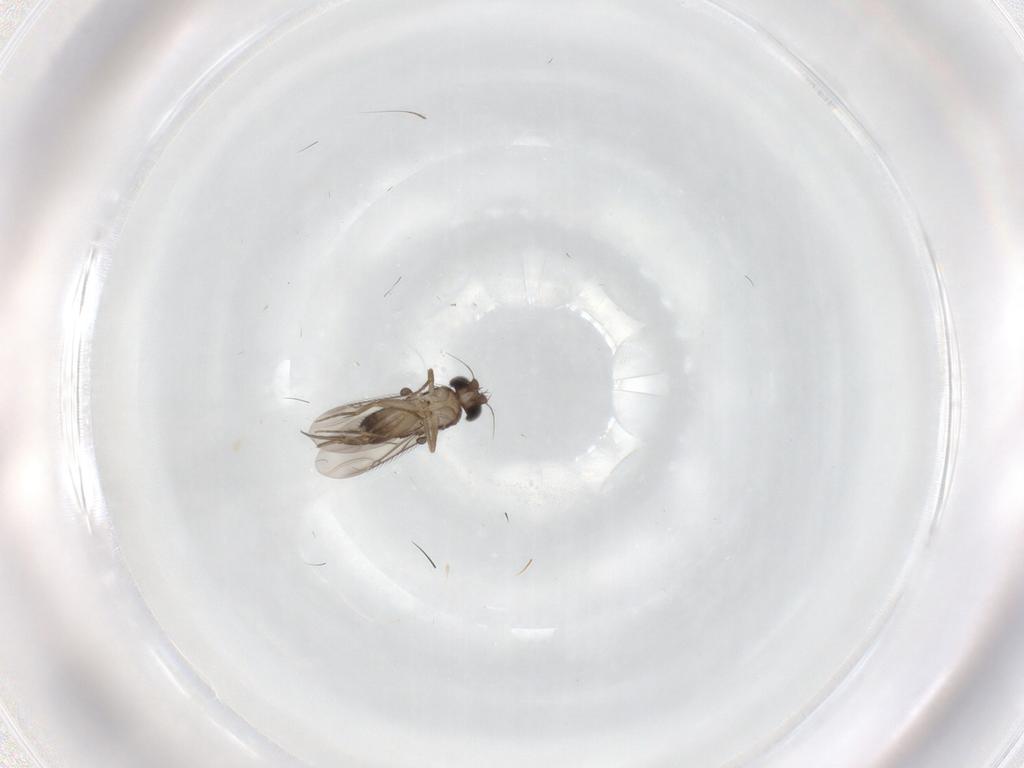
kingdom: Animalia
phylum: Arthropoda
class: Insecta
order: Diptera
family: Phoridae
